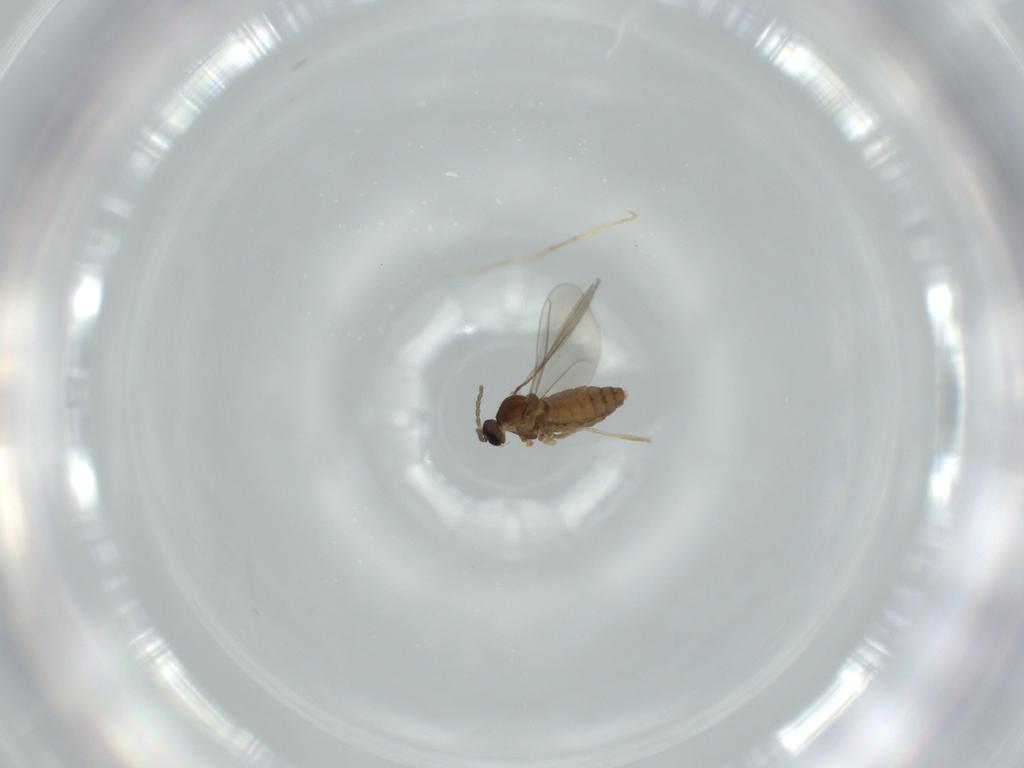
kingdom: Animalia
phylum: Arthropoda
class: Insecta
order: Diptera
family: Cecidomyiidae
